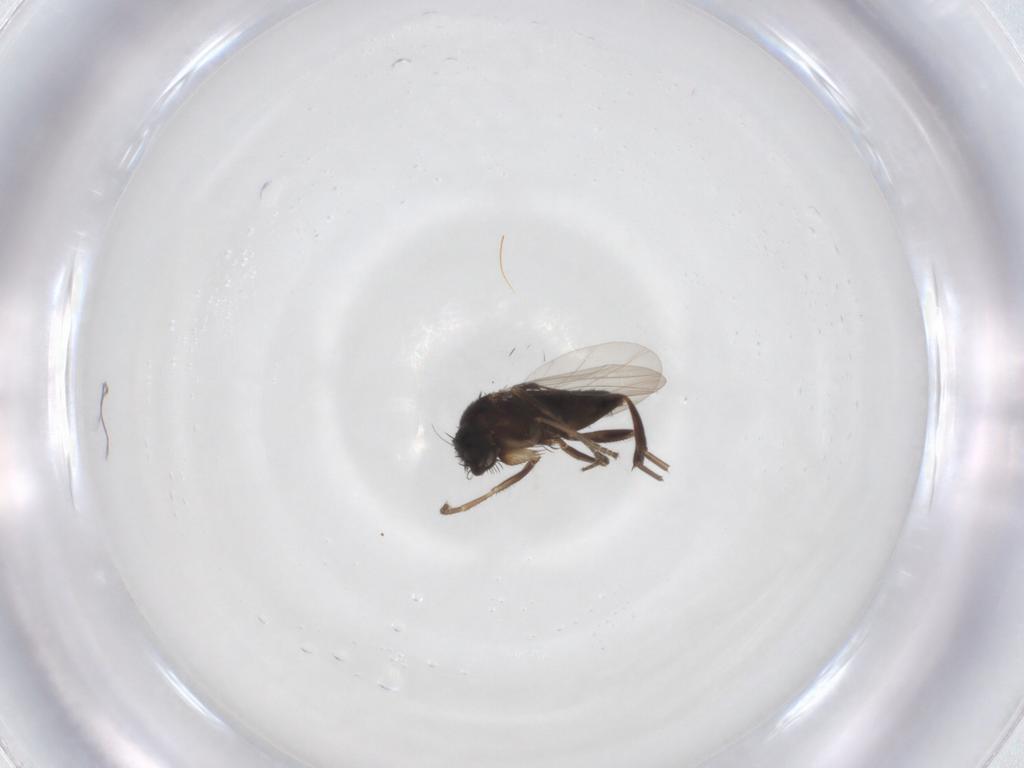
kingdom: Animalia
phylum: Arthropoda
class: Insecta
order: Diptera
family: Phoridae
